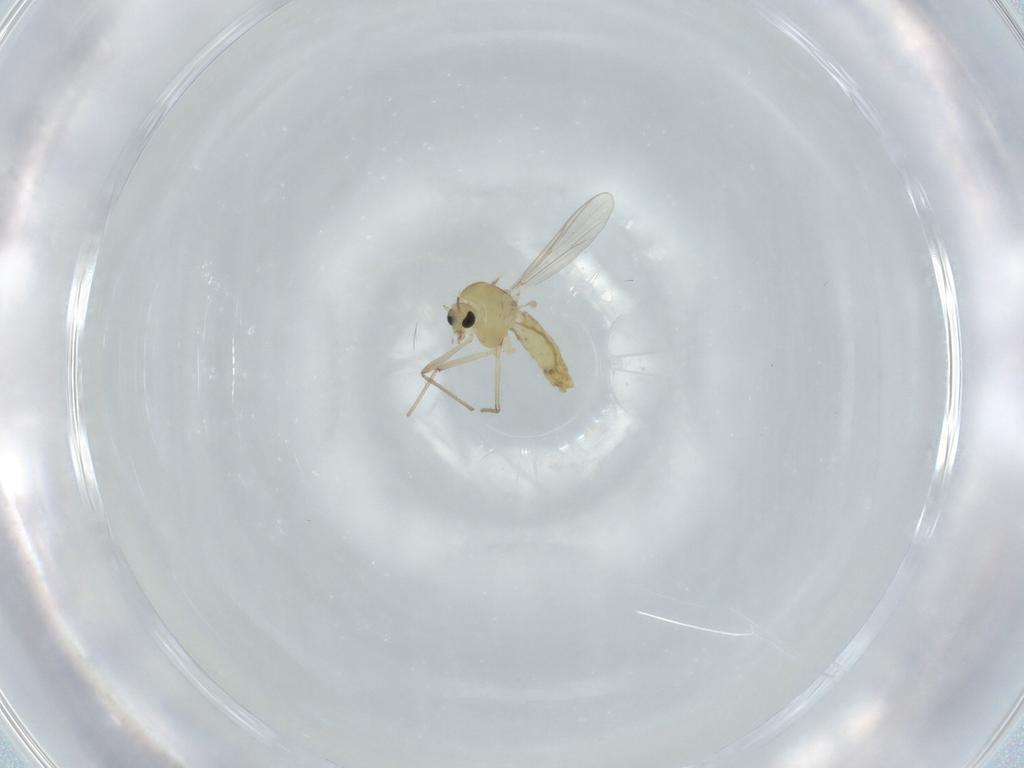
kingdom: Animalia
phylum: Arthropoda
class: Insecta
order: Diptera
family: Chironomidae
